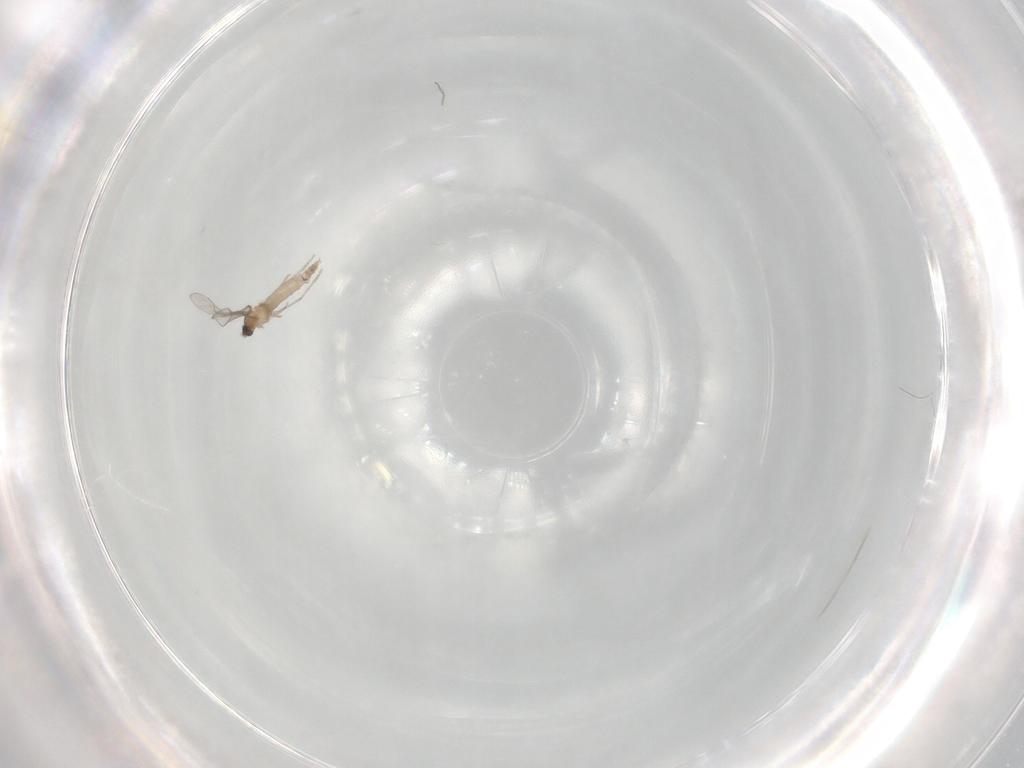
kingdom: Animalia
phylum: Arthropoda
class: Insecta
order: Diptera
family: Cecidomyiidae
